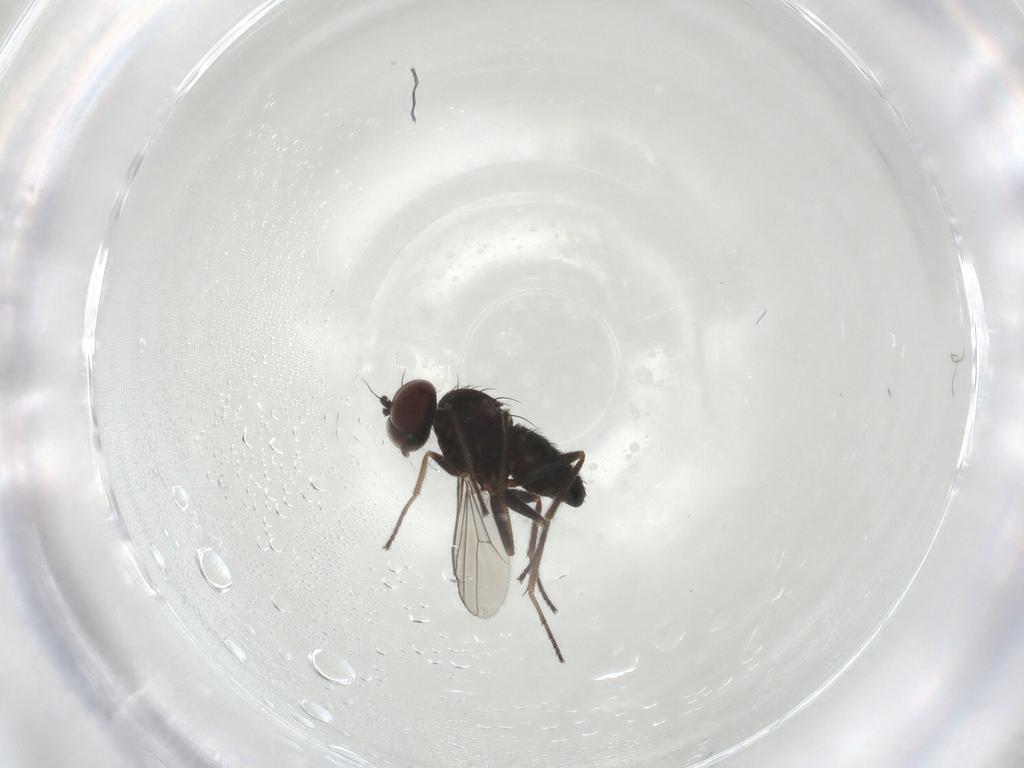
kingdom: Animalia
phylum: Arthropoda
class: Insecta
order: Diptera
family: Dolichopodidae
